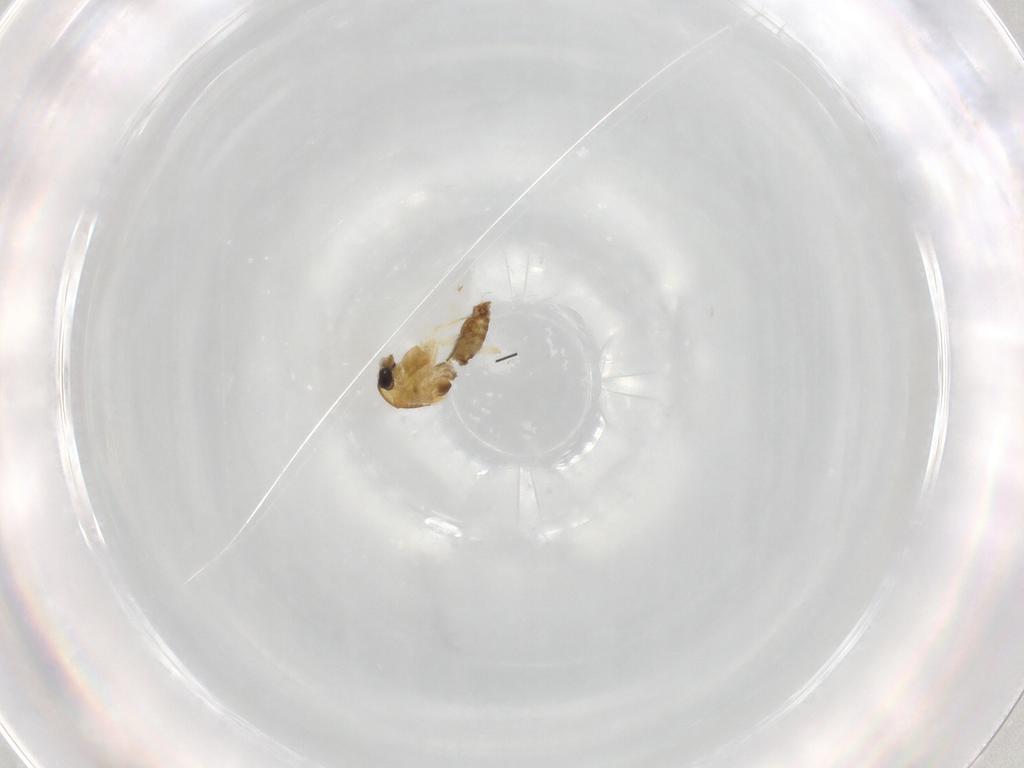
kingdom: Animalia
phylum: Arthropoda
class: Insecta
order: Diptera
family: Chironomidae
